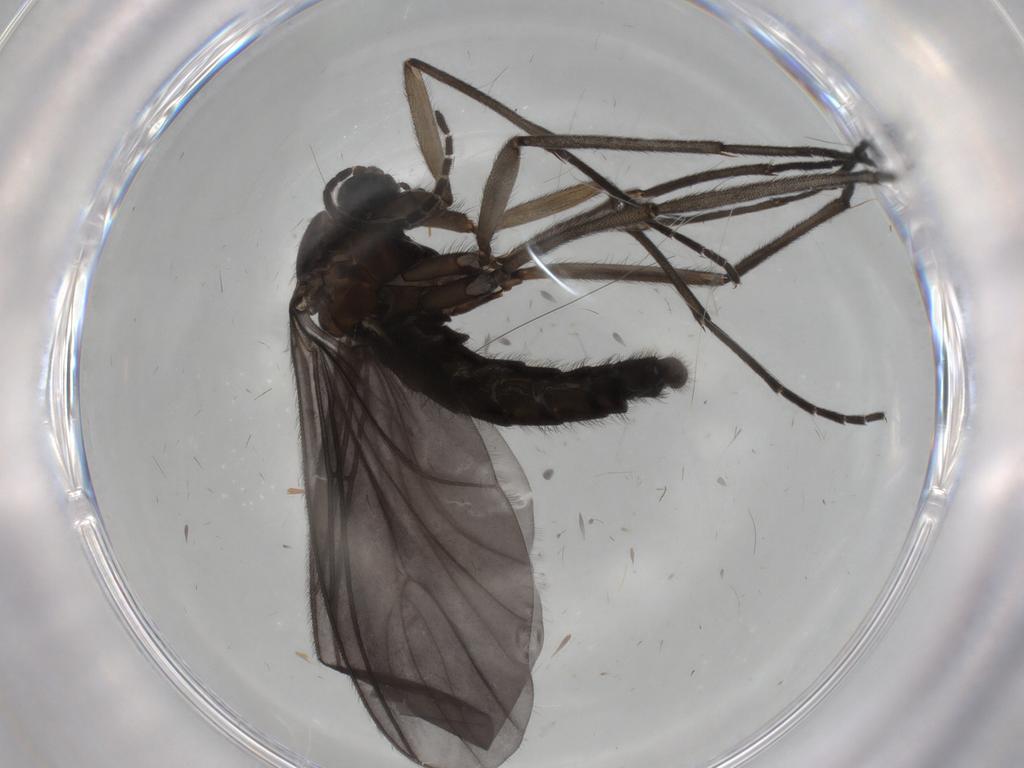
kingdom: Animalia
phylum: Arthropoda
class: Insecta
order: Diptera
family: Sciaridae
